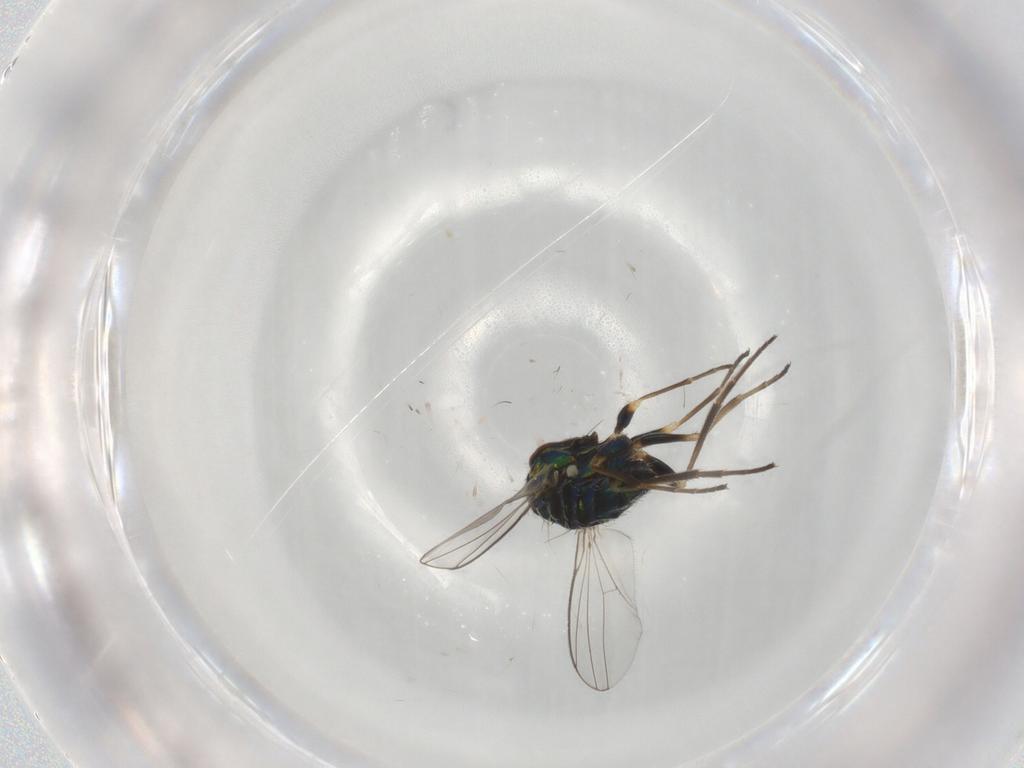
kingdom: Animalia
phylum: Arthropoda
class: Insecta
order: Diptera
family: Dolichopodidae
